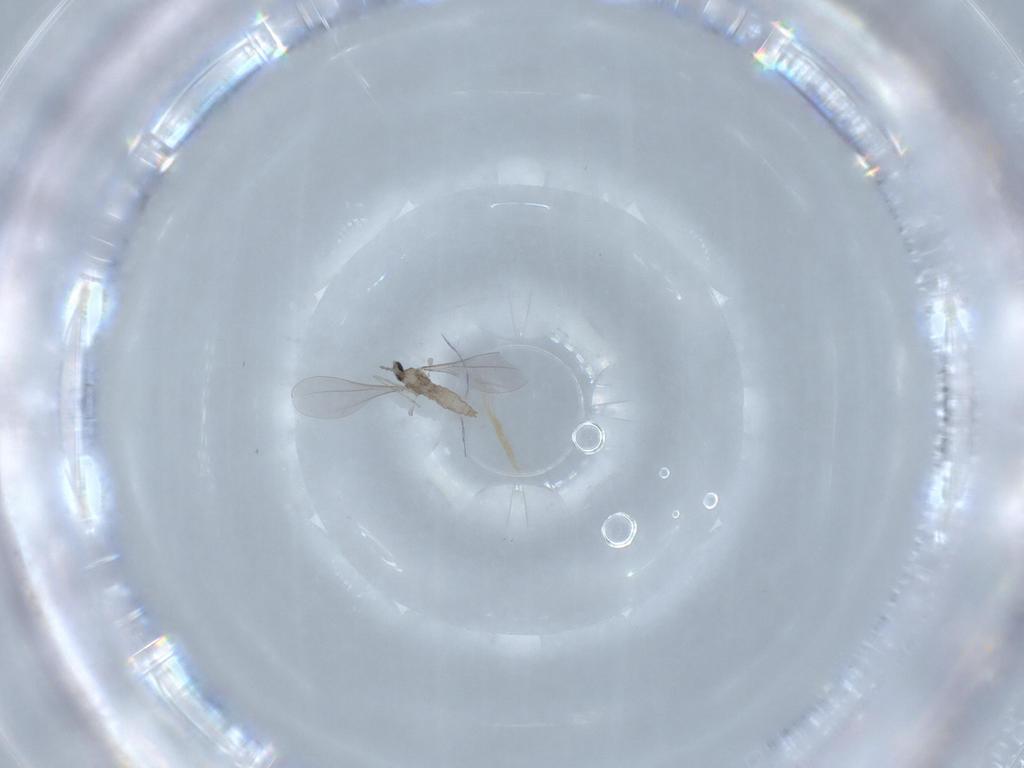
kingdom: Animalia
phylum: Arthropoda
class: Insecta
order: Diptera
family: Cecidomyiidae
